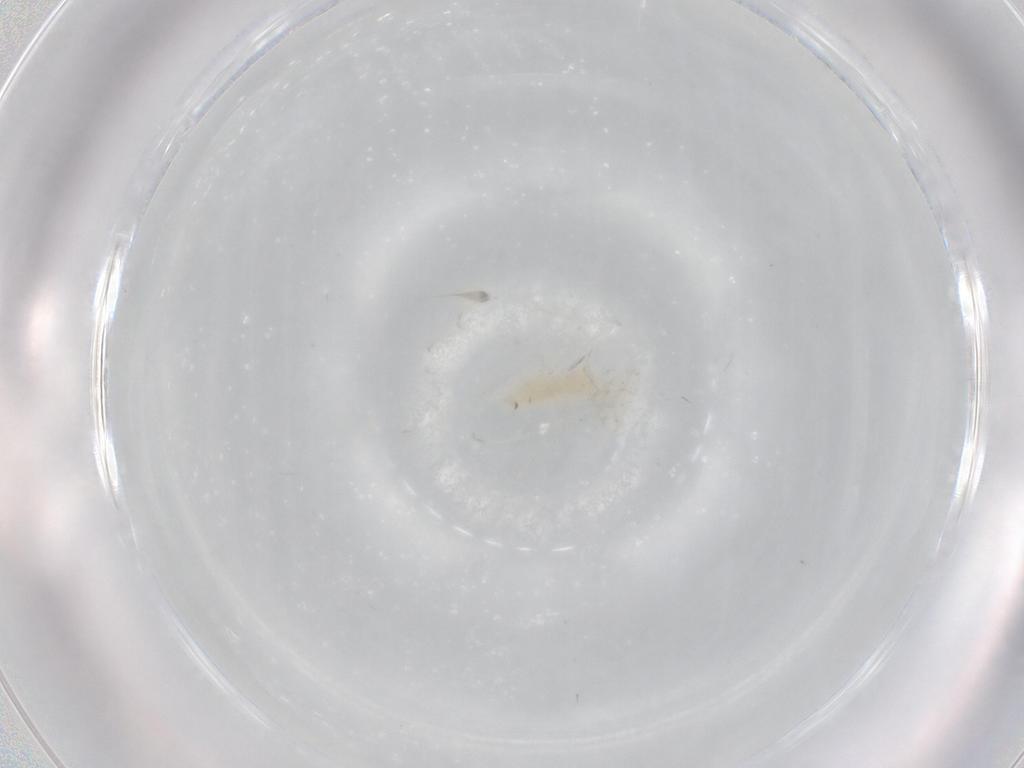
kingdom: Animalia
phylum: Arthropoda
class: Insecta
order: Diptera
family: Cecidomyiidae
